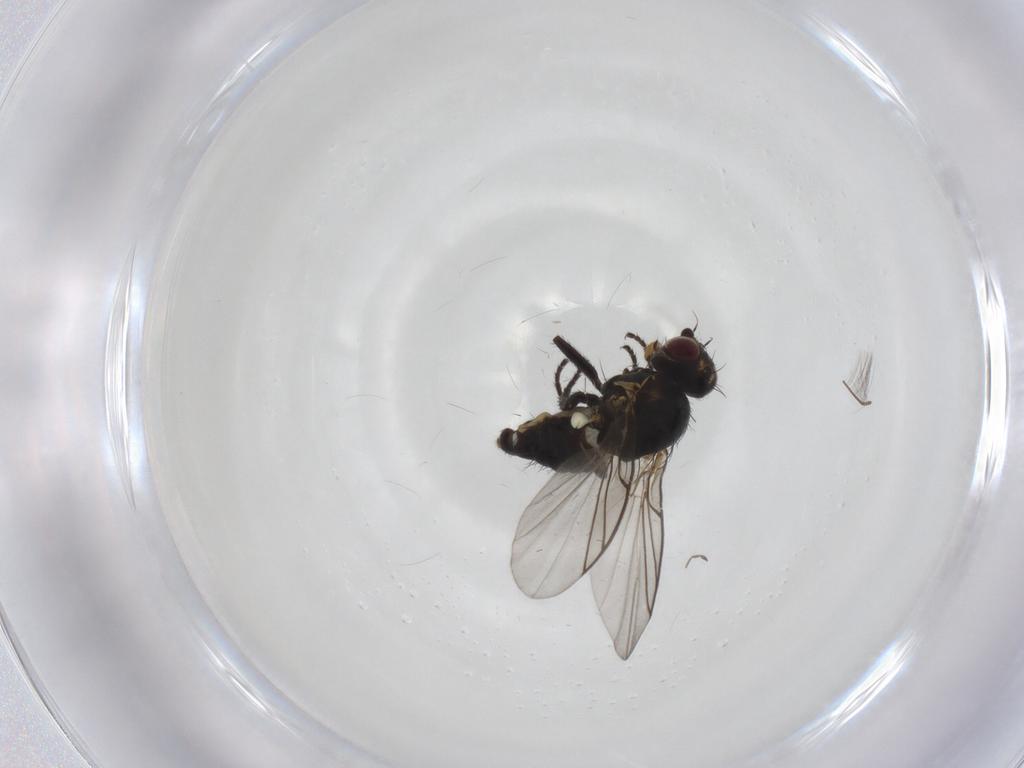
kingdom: Animalia
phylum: Arthropoda
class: Insecta
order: Diptera
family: Agromyzidae
